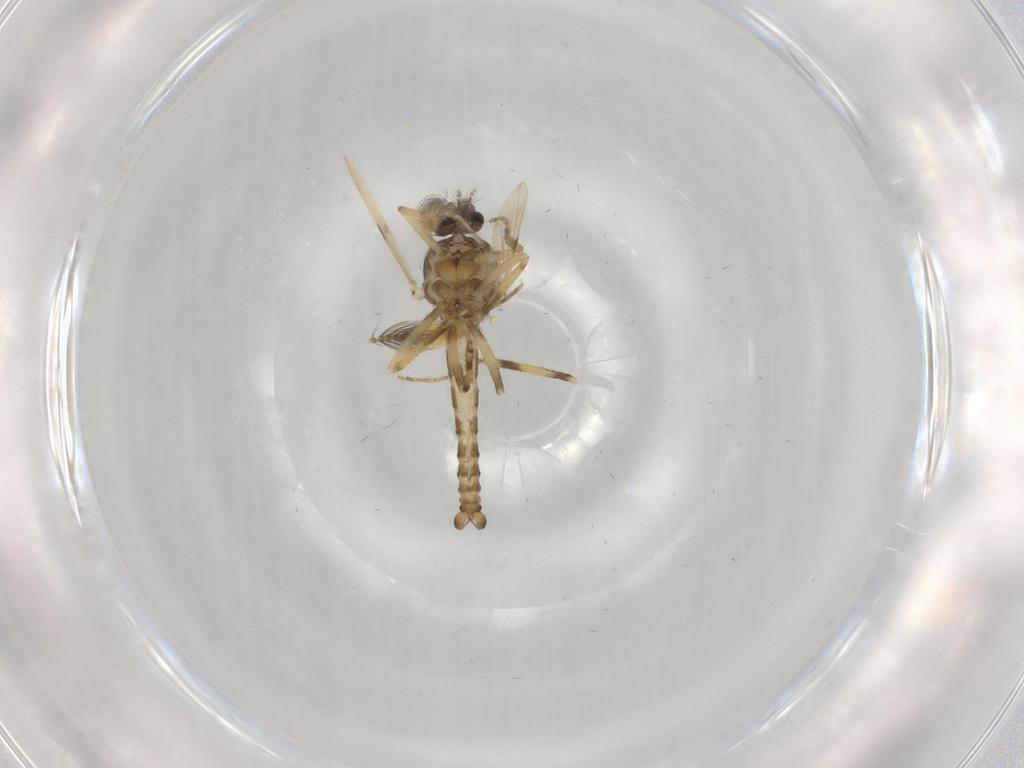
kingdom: Animalia
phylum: Arthropoda
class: Insecta
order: Diptera
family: Ceratopogonidae
